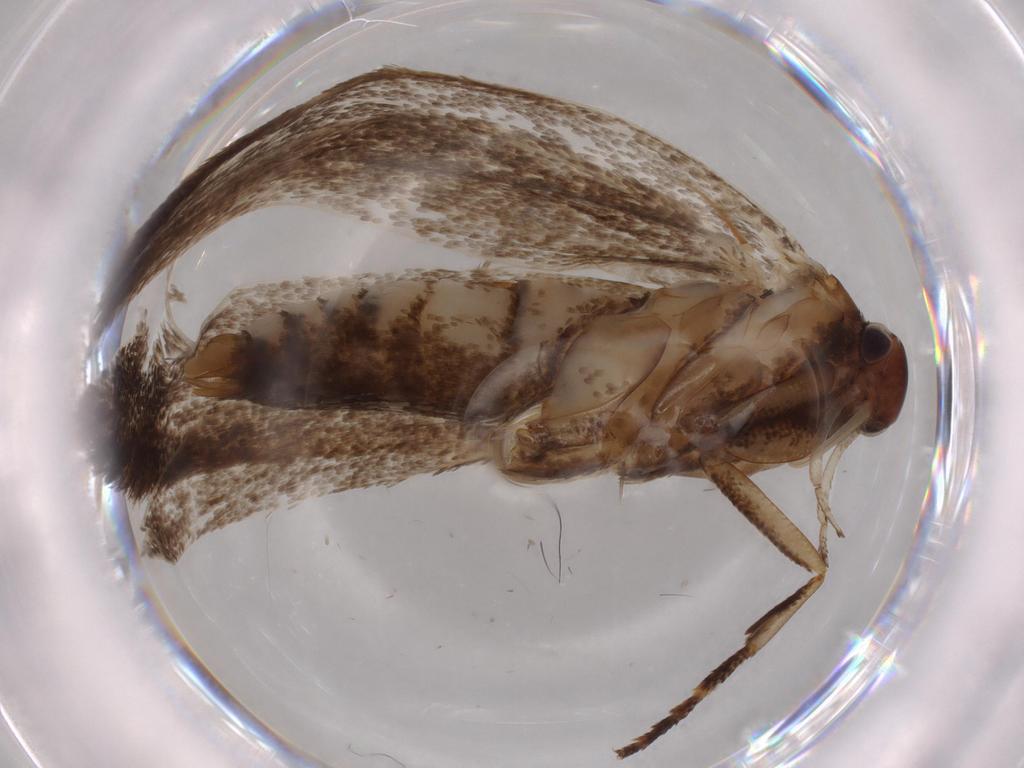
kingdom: Animalia
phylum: Arthropoda
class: Insecta
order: Lepidoptera
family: Momphidae
